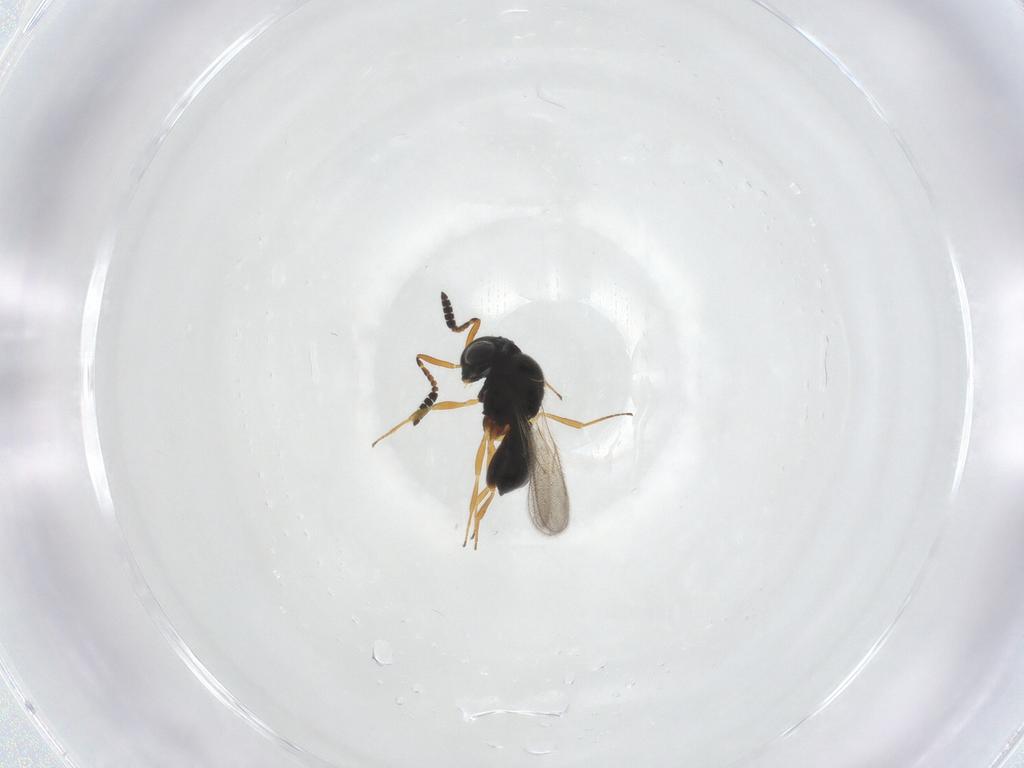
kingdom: Animalia
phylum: Arthropoda
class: Insecta
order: Hymenoptera
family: Scelionidae
